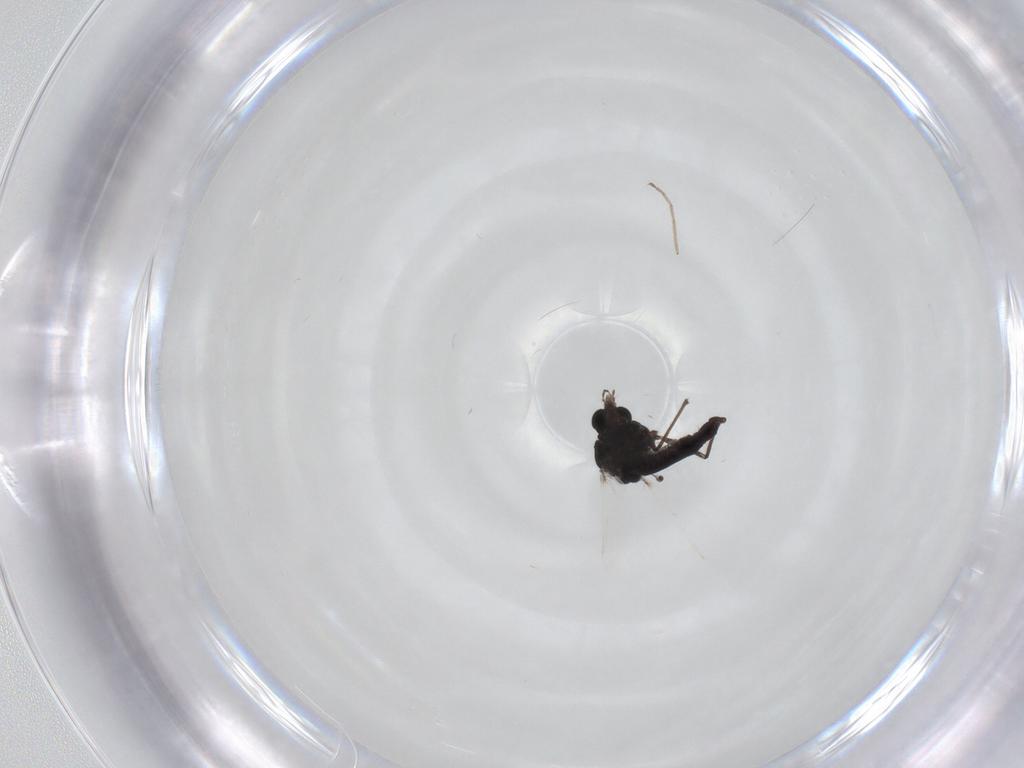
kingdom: Animalia
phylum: Arthropoda
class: Insecta
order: Diptera
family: Chironomidae
